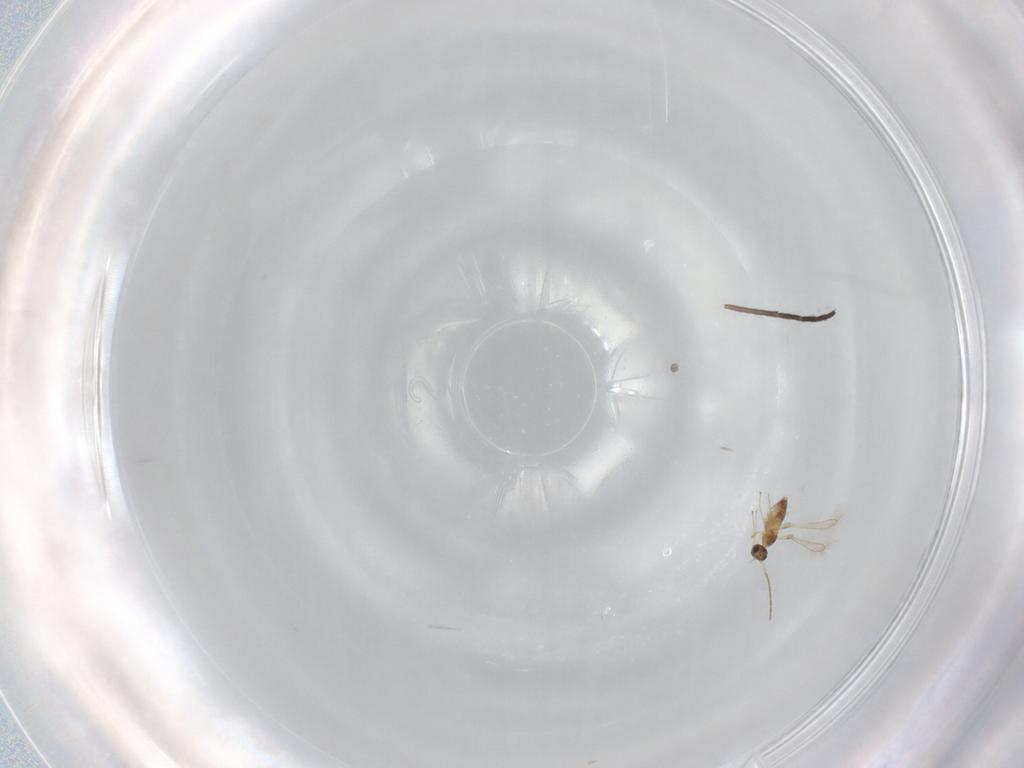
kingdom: Animalia
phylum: Arthropoda
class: Insecta
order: Hymenoptera
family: Mymaridae
